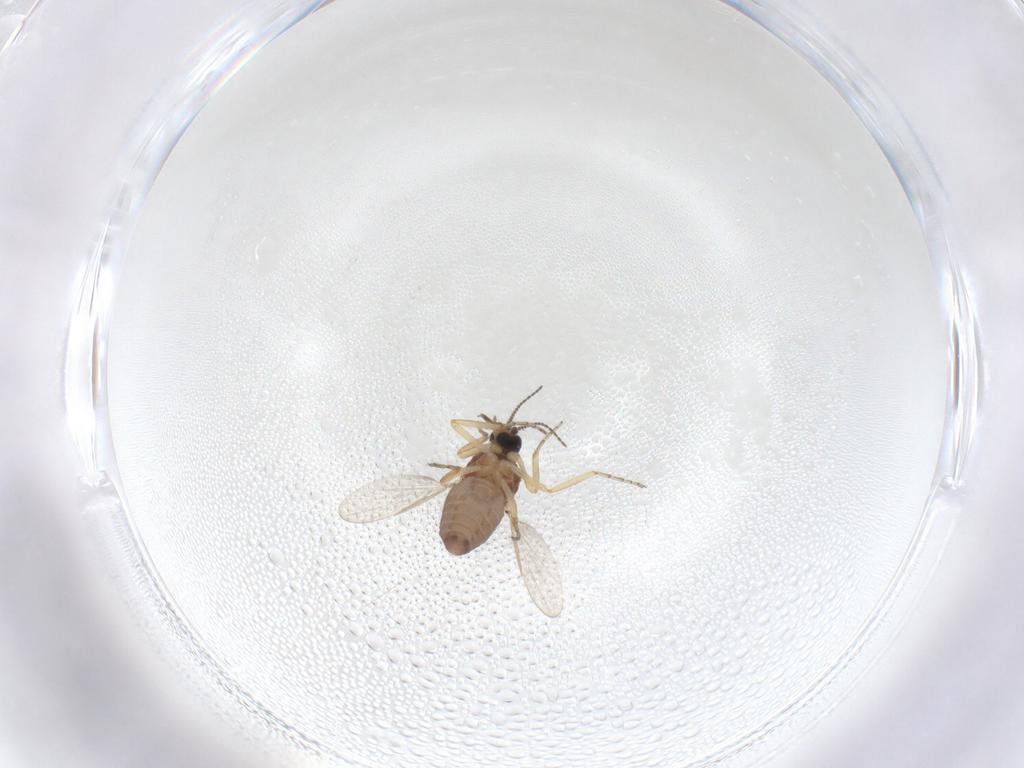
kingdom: Animalia
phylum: Arthropoda
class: Insecta
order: Diptera
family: Ceratopogonidae
